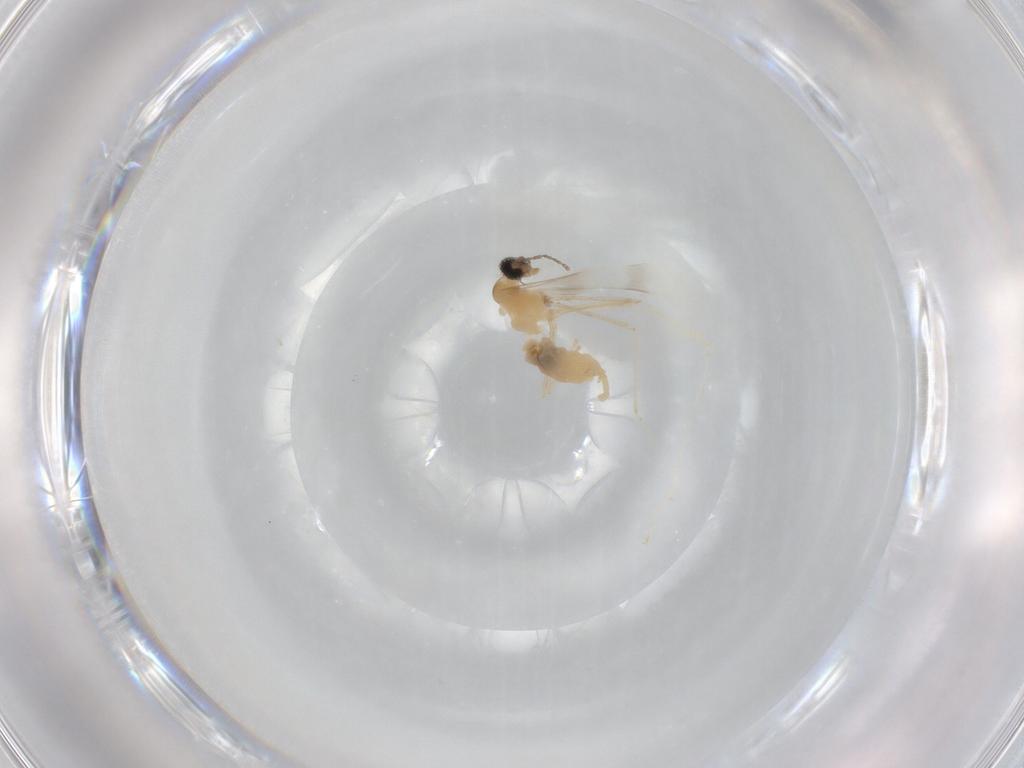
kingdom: Animalia
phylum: Arthropoda
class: Insecta
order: Diptera
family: Cecidomyiidae
